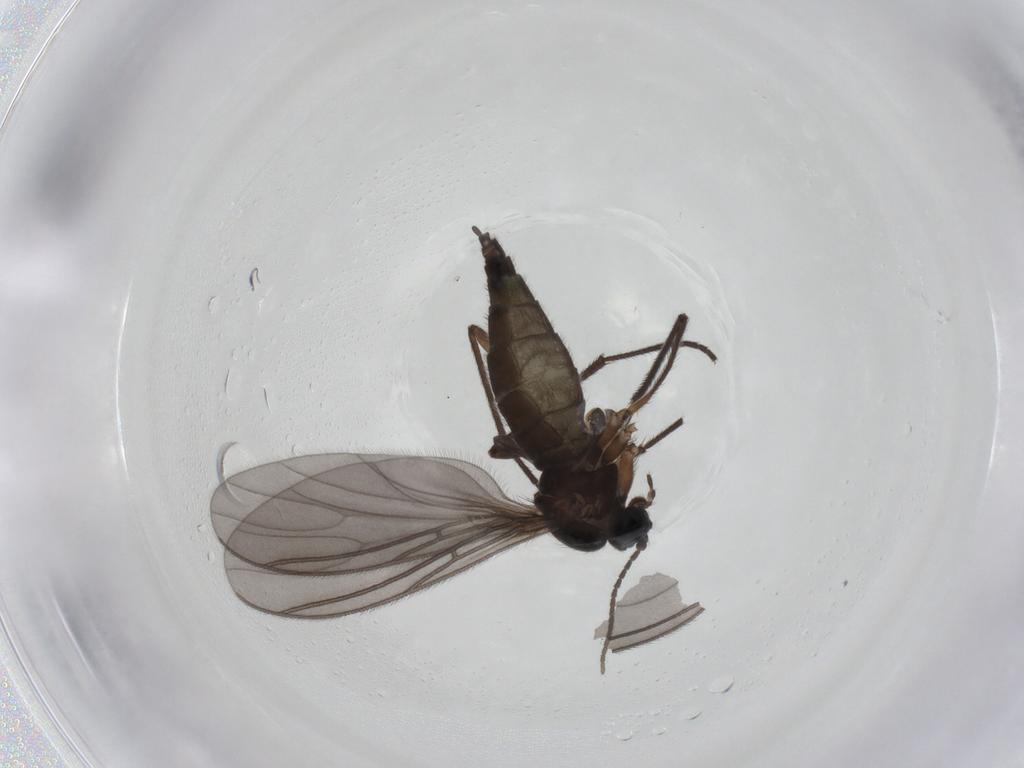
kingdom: Animalia
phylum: Arthropoda
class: Insecta
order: Diptera
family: Sciaridae
